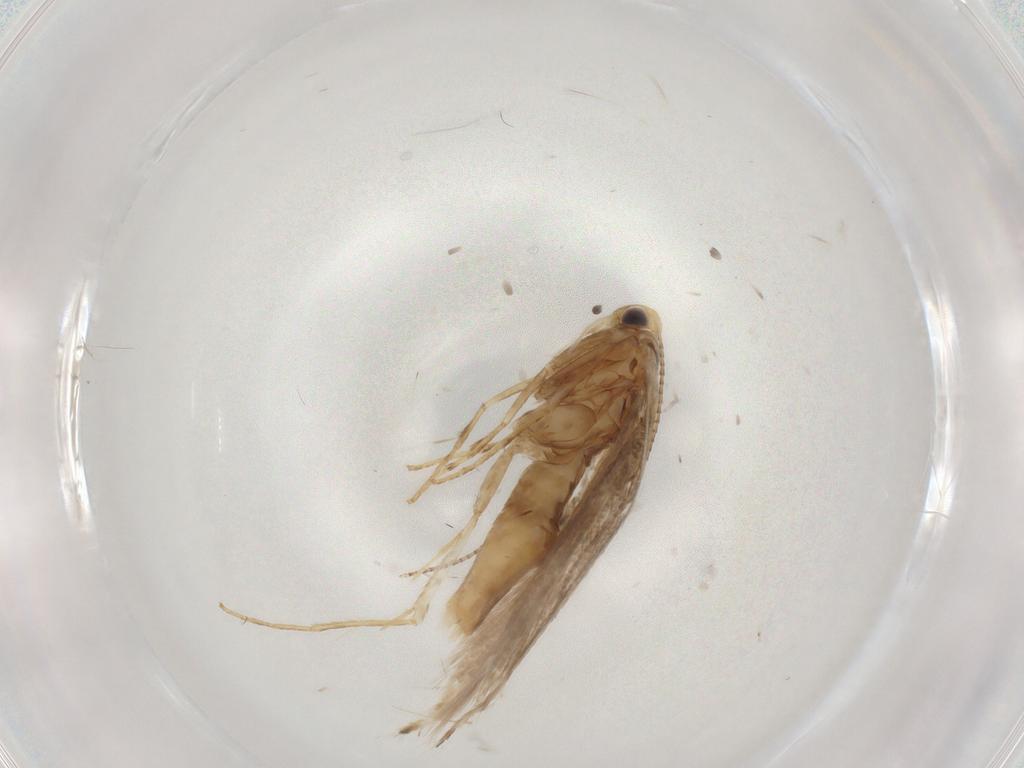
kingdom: Animalia
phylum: Arthropoda
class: Insecta
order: Lepidoptera
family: Gracillariidae
